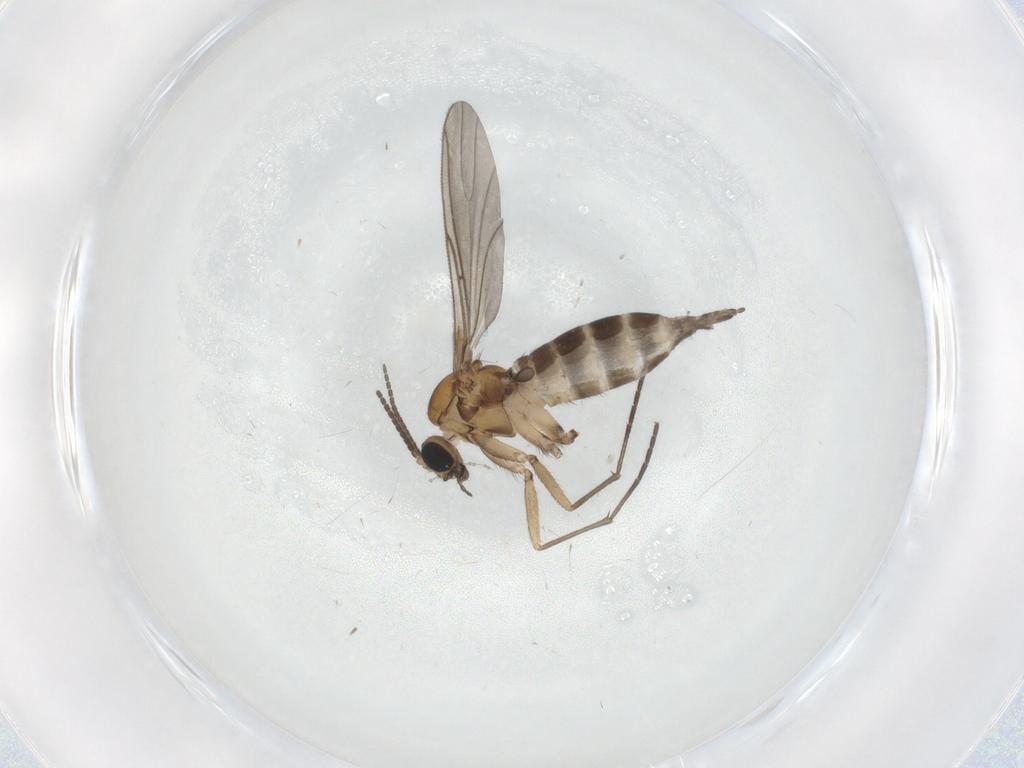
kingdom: Animalia
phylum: Arthropoda
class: Insecta
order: Diptera
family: Sciaridae
